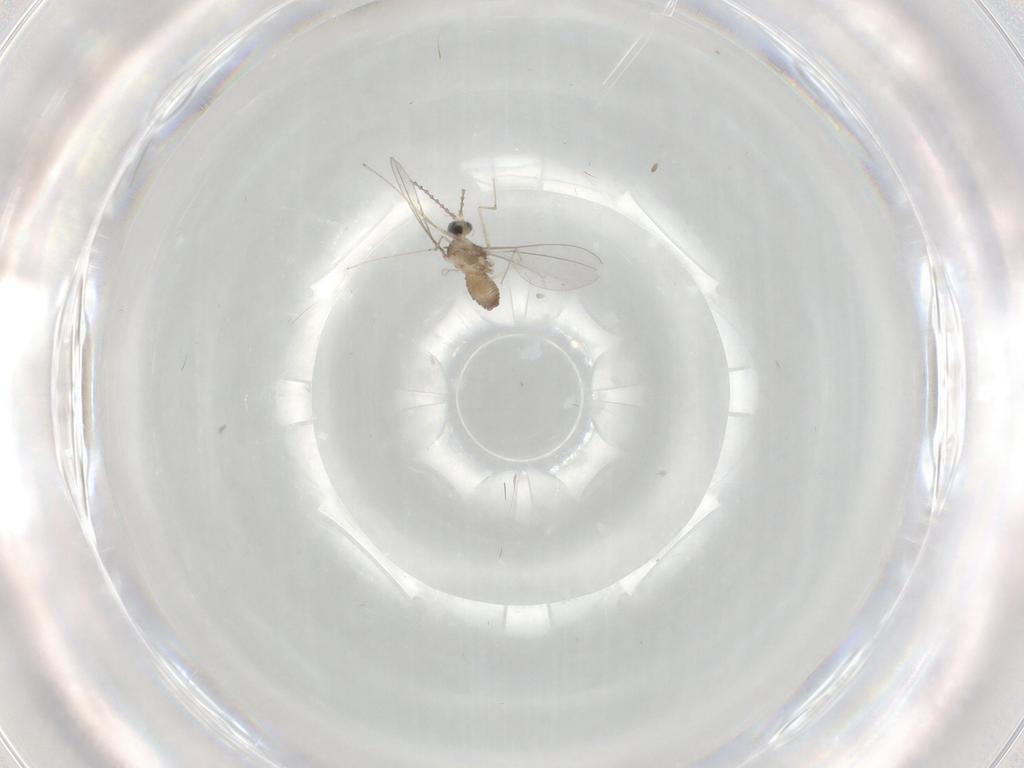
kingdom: Animalia
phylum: Arthropoda
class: Insecta
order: Diptera
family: Cecidomyiidae
